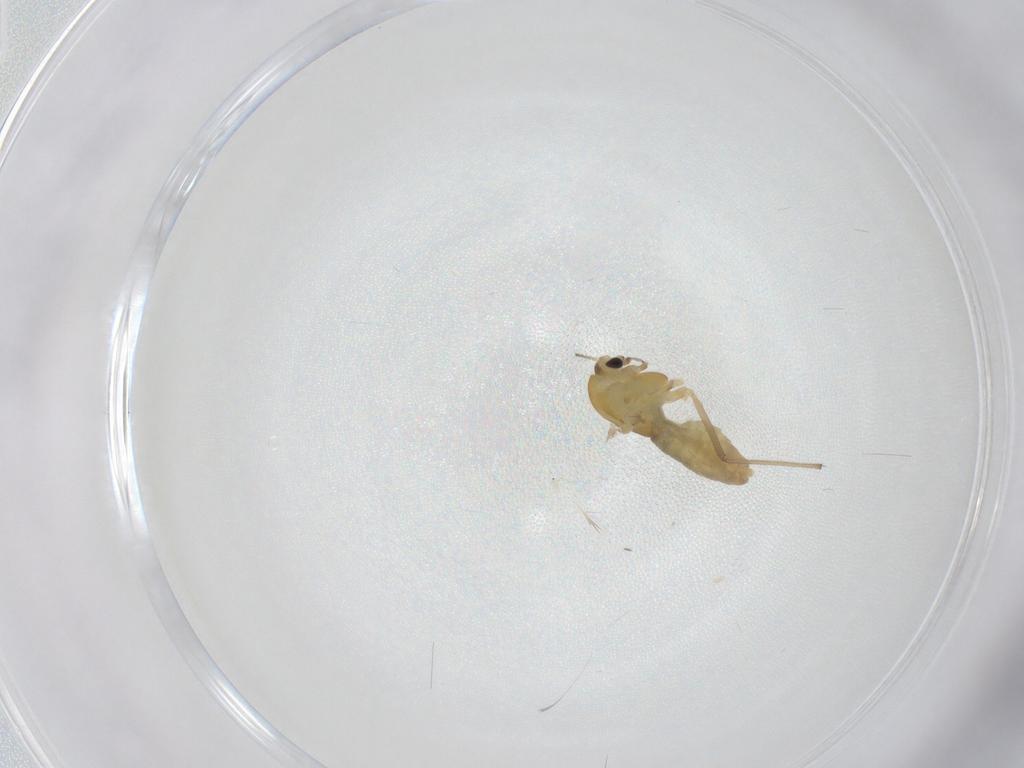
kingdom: Animalia
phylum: Arthropoda
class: Insecta
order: Diptera
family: Chironomidae
